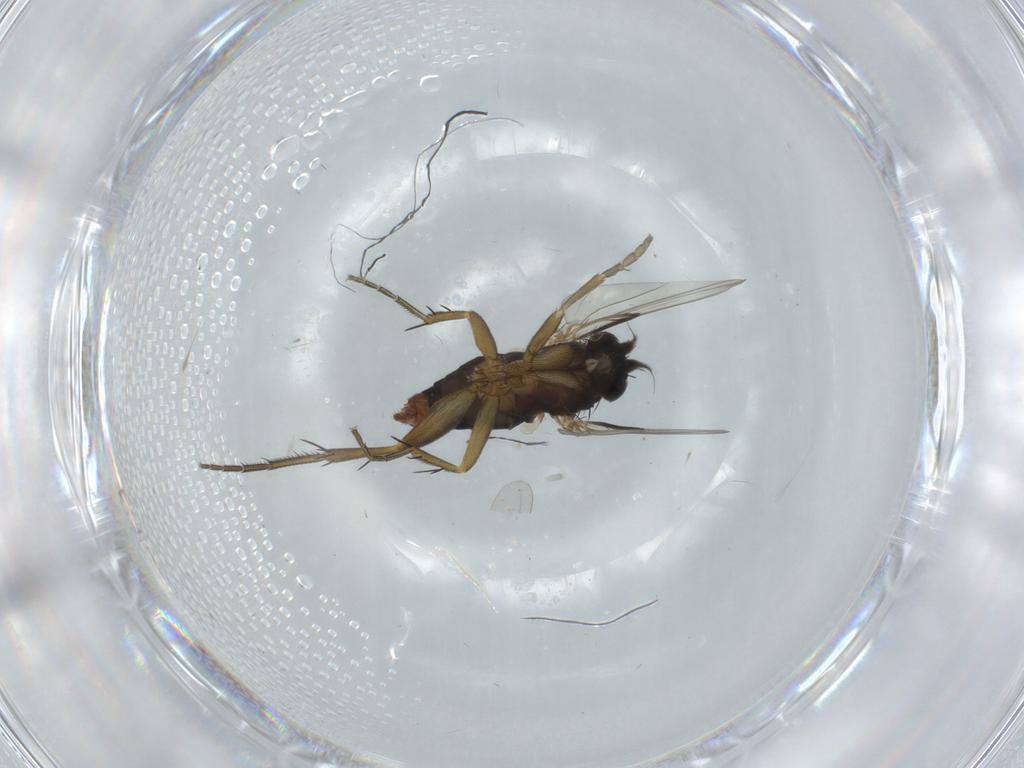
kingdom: Animalia
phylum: Arthropoda
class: Insecta
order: Diptera
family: Phoridae
